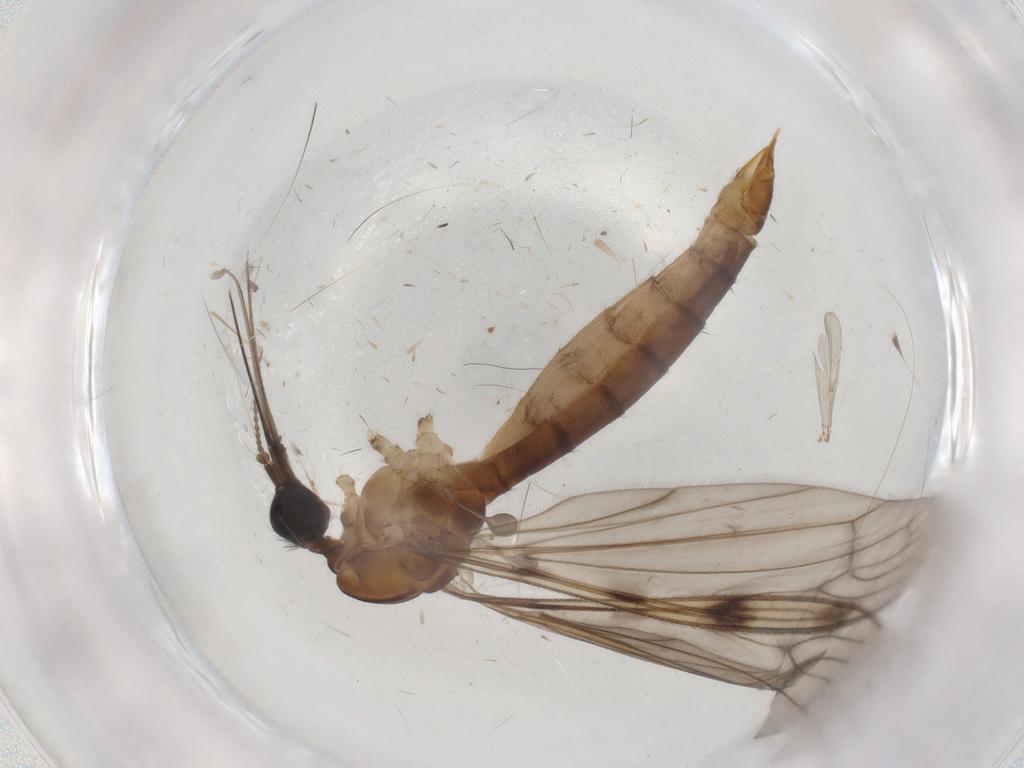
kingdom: Animalia
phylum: Arthropoda
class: Insecta
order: Diptera
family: Cecidomyiidae
